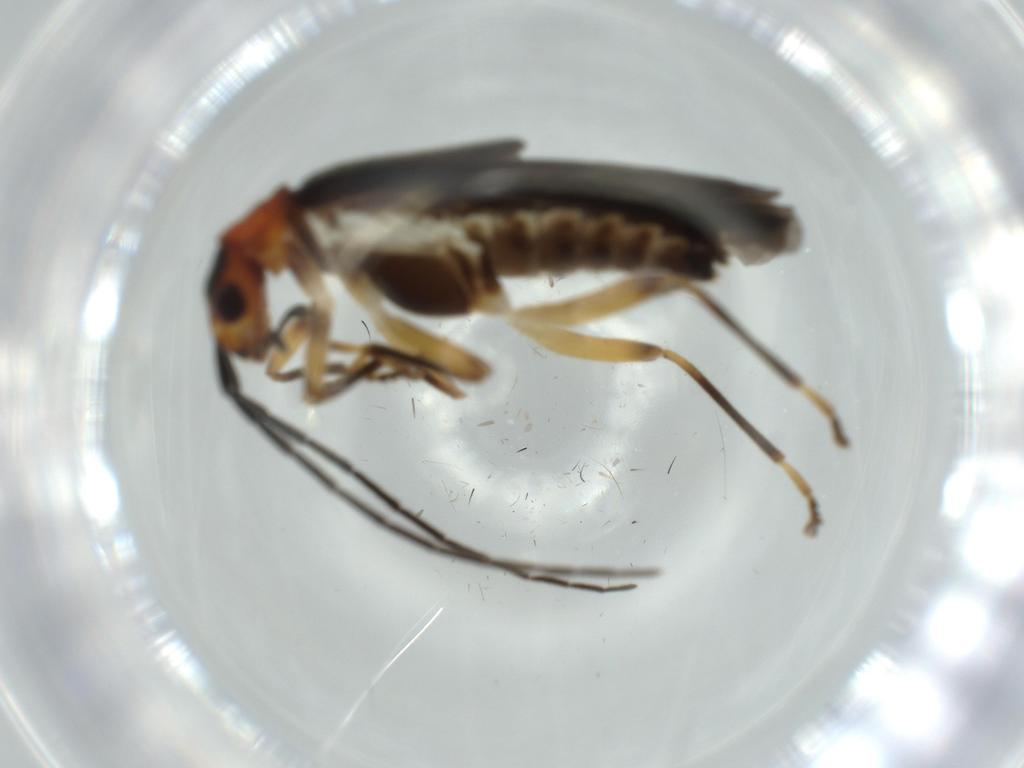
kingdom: Animalia
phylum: Arthropoda
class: Insecta
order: Coleoptera
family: Cantharidae
